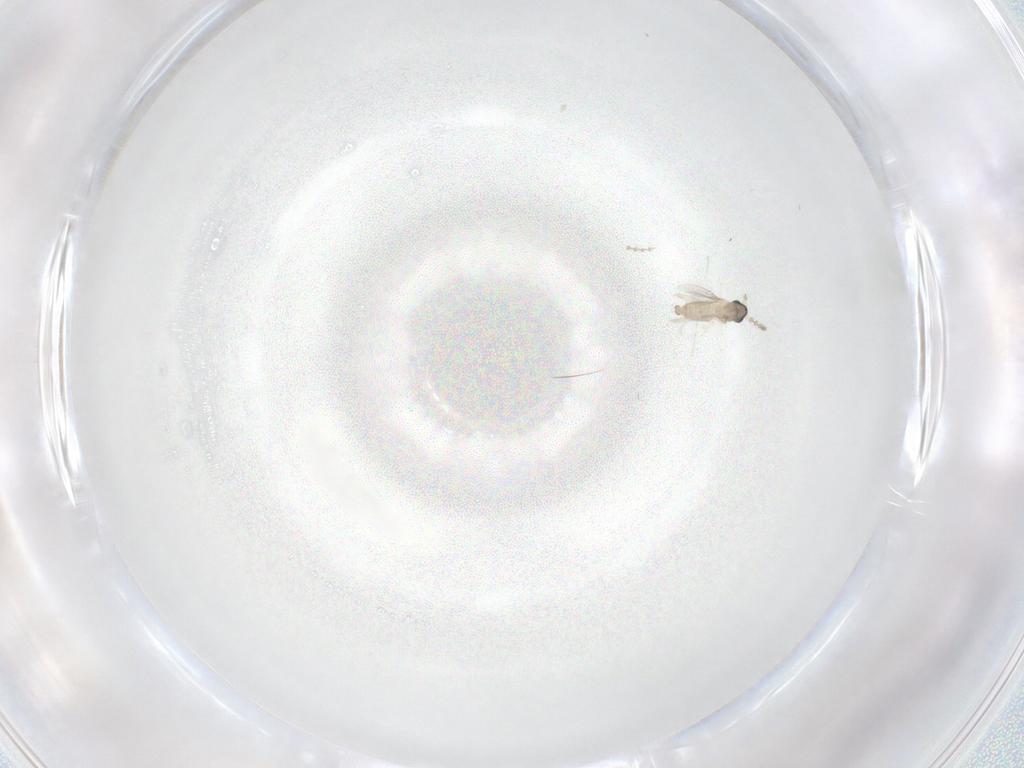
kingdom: Animalia
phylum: Arthropoda
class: Insecta
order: Diptera
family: Cecidomyiidae
